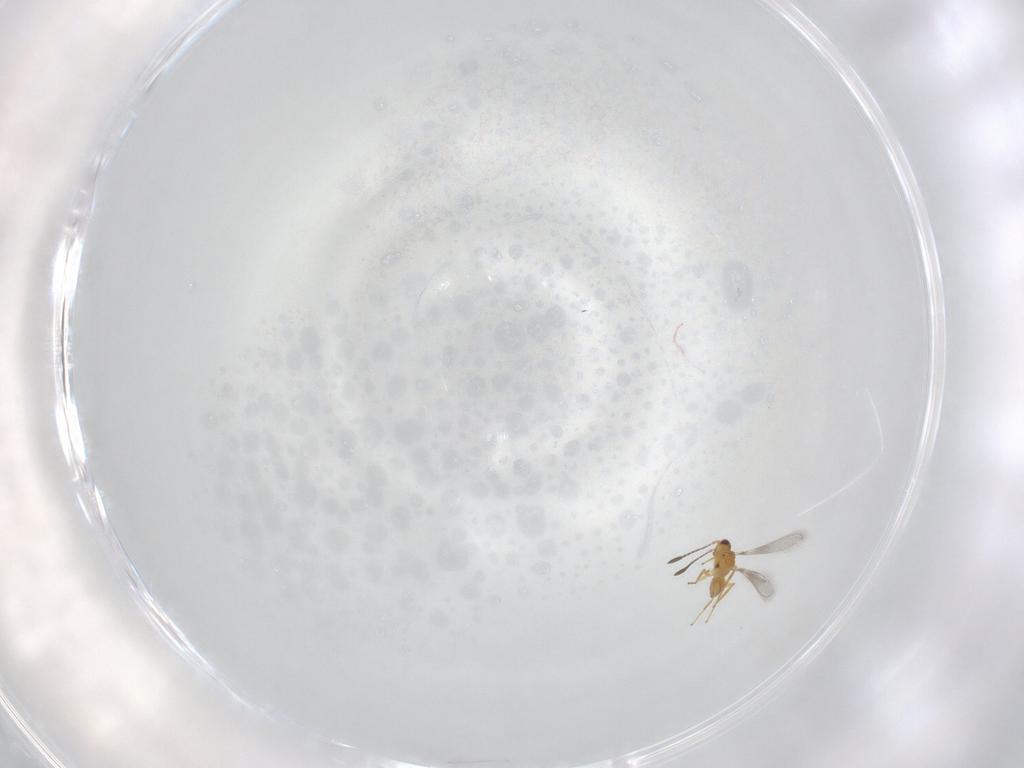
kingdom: Animalia
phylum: Arthropoda
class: Insecta
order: Hymenoptera
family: Mymaridae
